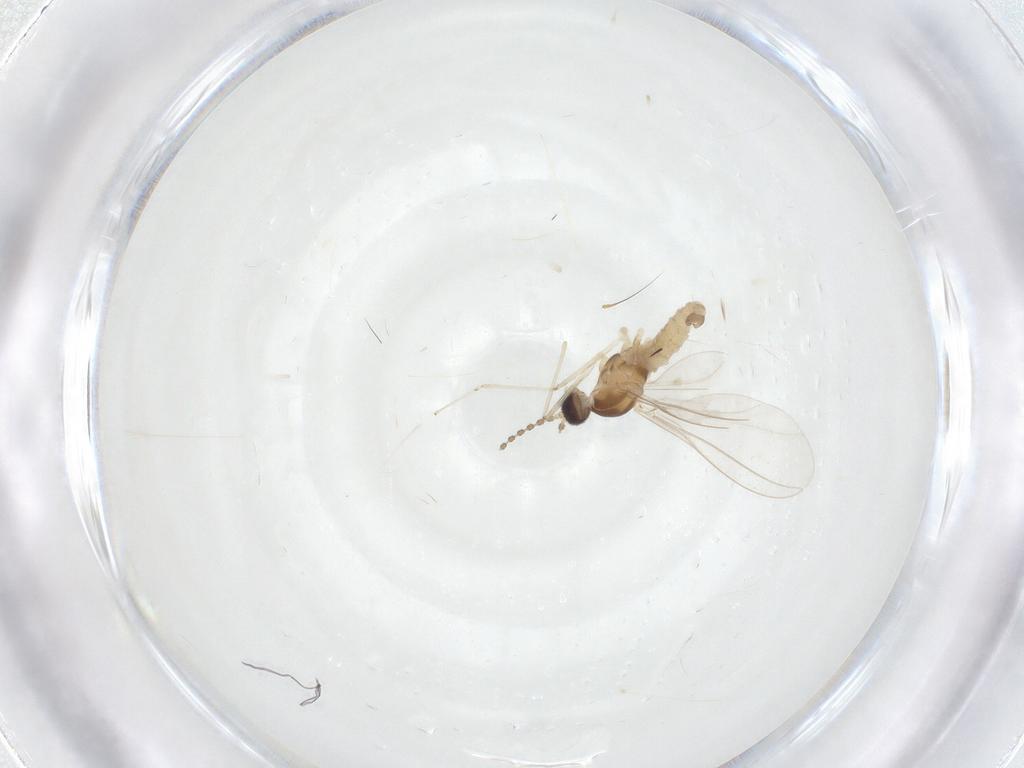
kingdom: Animalia
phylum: Arthropoda
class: Insecta
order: Diptera
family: Cecidomyiidae
